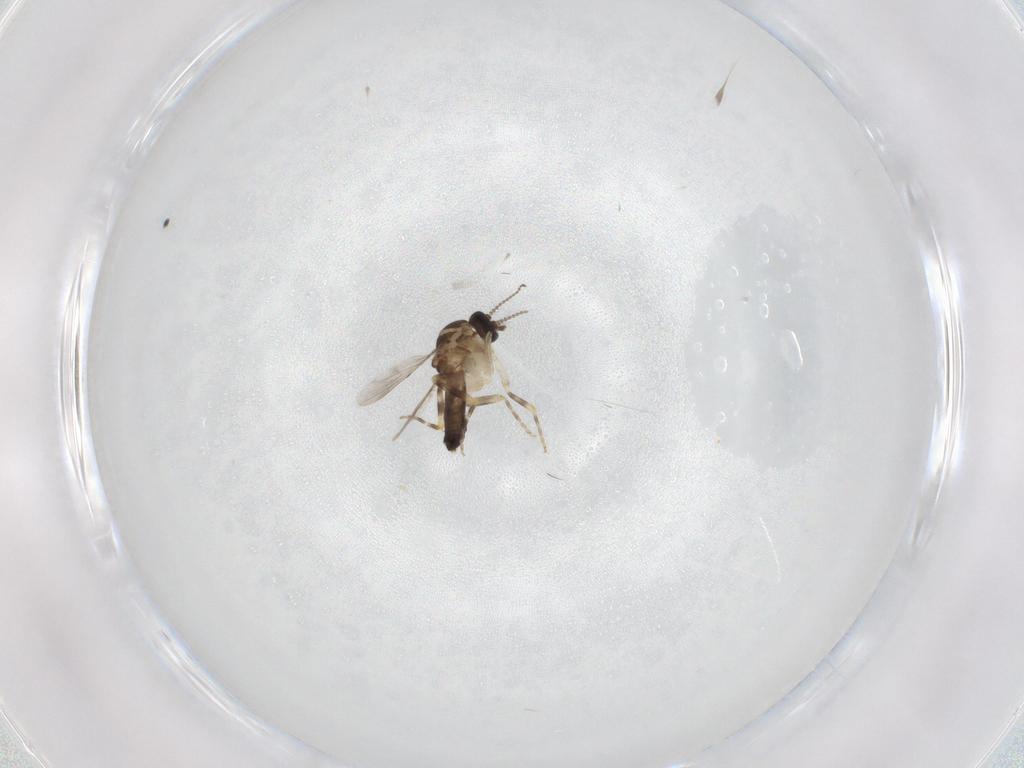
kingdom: Animalia
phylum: Arthropoda
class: Insecta
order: Diptera
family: Ceratopogonidae
